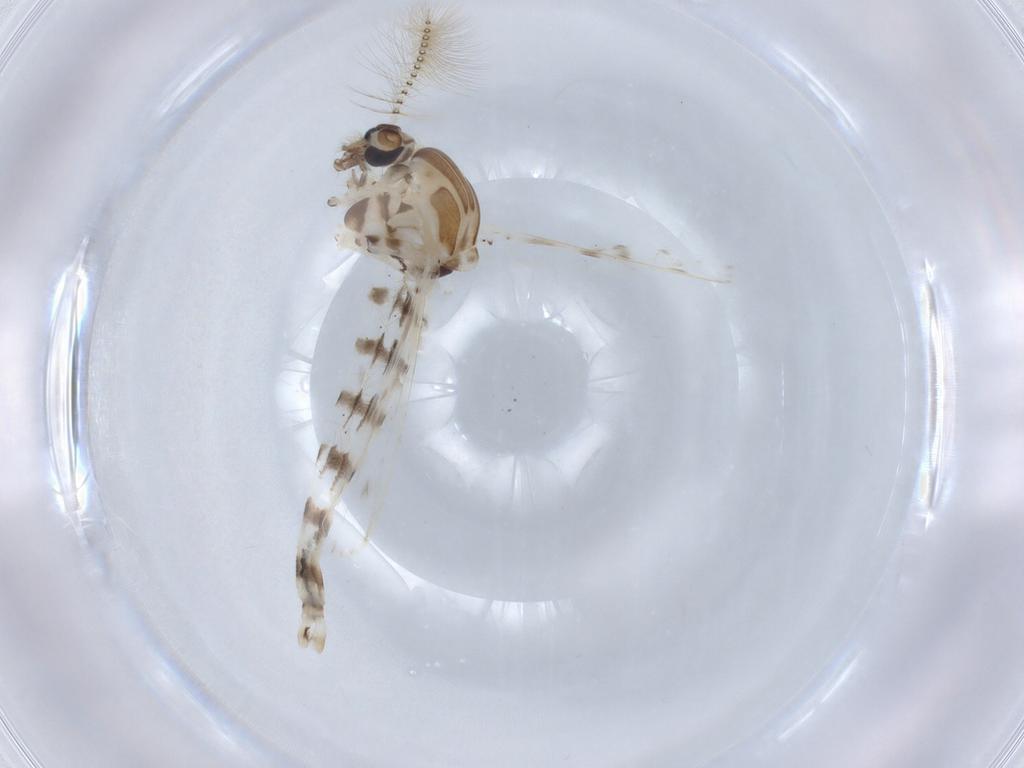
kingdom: Animalia
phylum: Arthropoda
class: Insecta
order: Diptera
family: Chaoboridae
